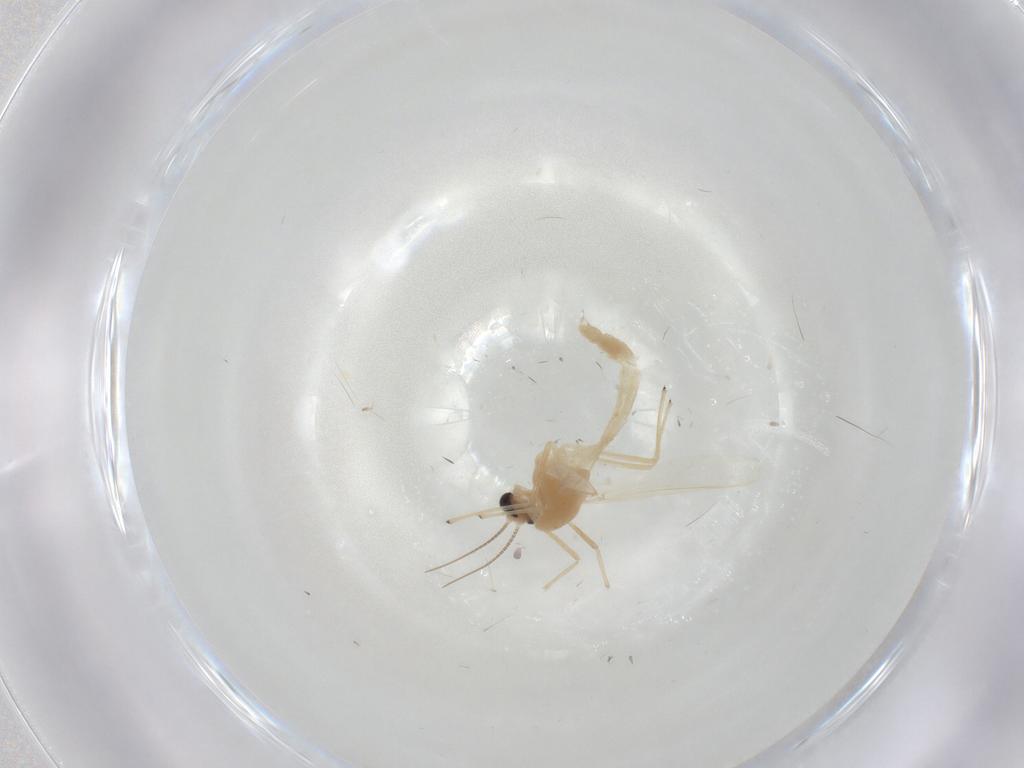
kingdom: Animalia
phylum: Arthropoda
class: Insecta
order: Diptera
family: Chironomidae
